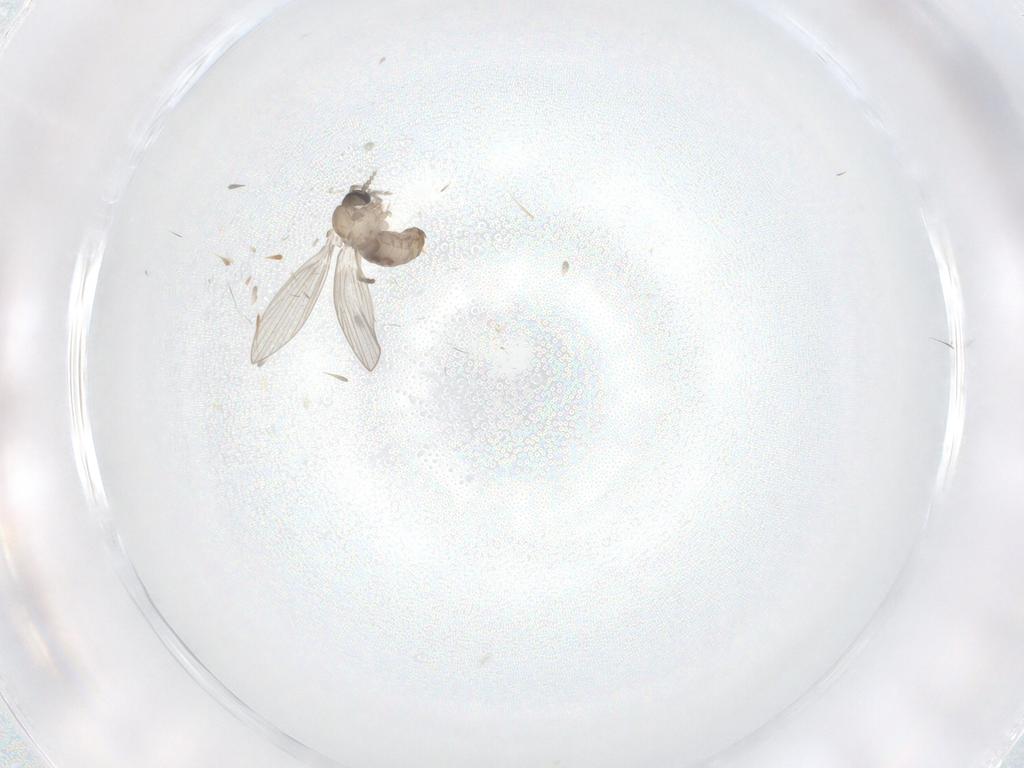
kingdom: Animalia
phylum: Arthropoda
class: Insecta
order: Diptera
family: Psychodidae
